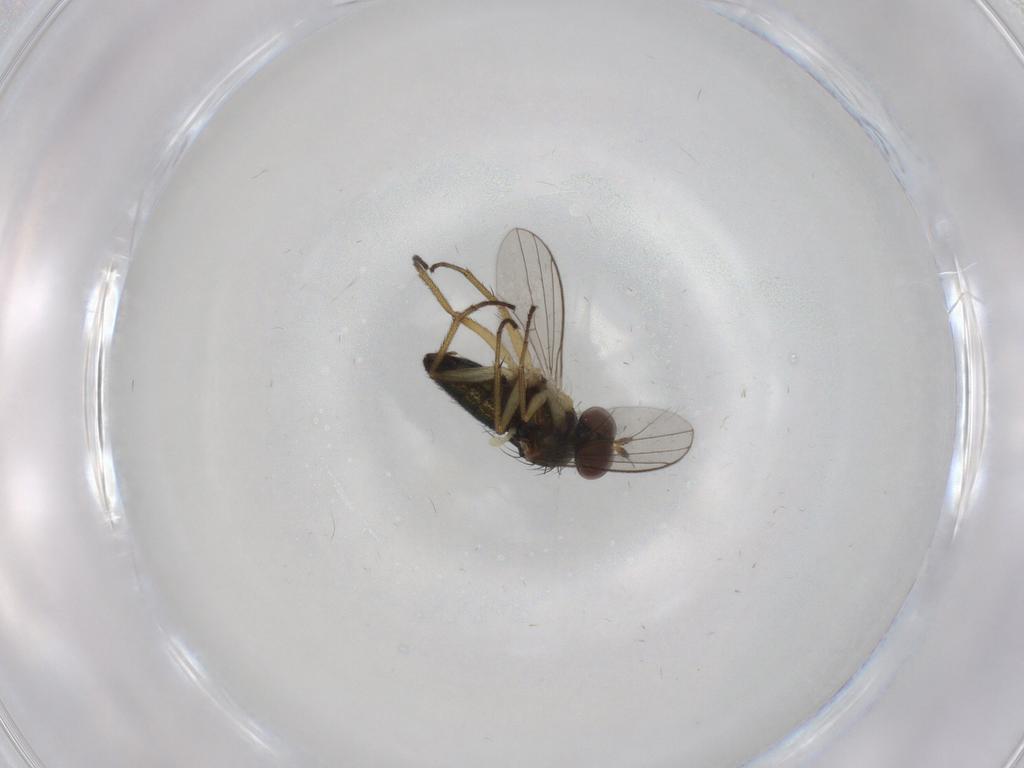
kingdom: Animalia
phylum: Arthropoda
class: Insecta
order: Diptera
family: Dolichopodidae
